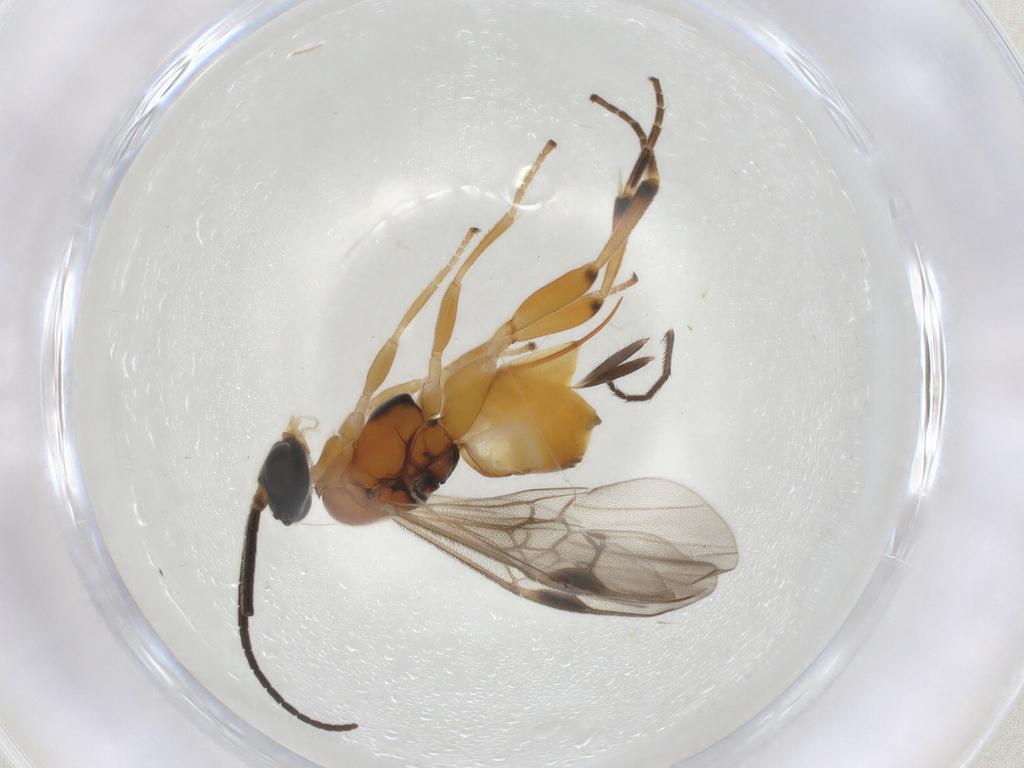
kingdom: Animalia
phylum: Arthropoda
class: Insecta
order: Hymenoptera
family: Braconidae
